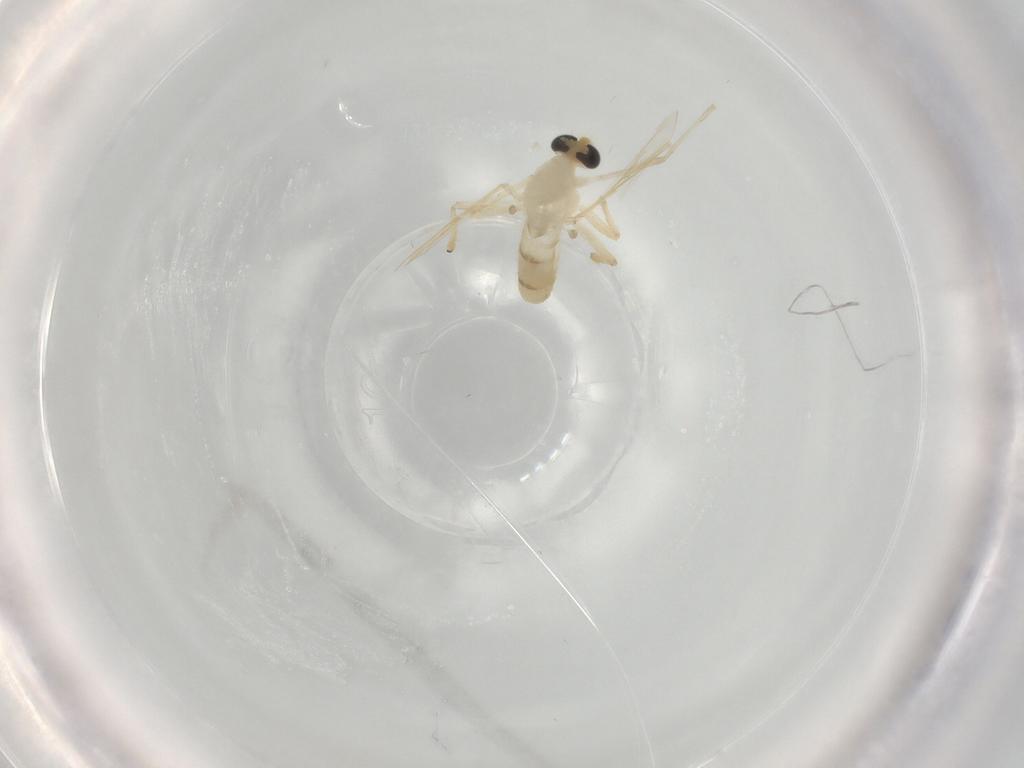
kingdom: Animalia
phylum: Arthropoda
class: Insecta
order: Diptera
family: Chironomidae
